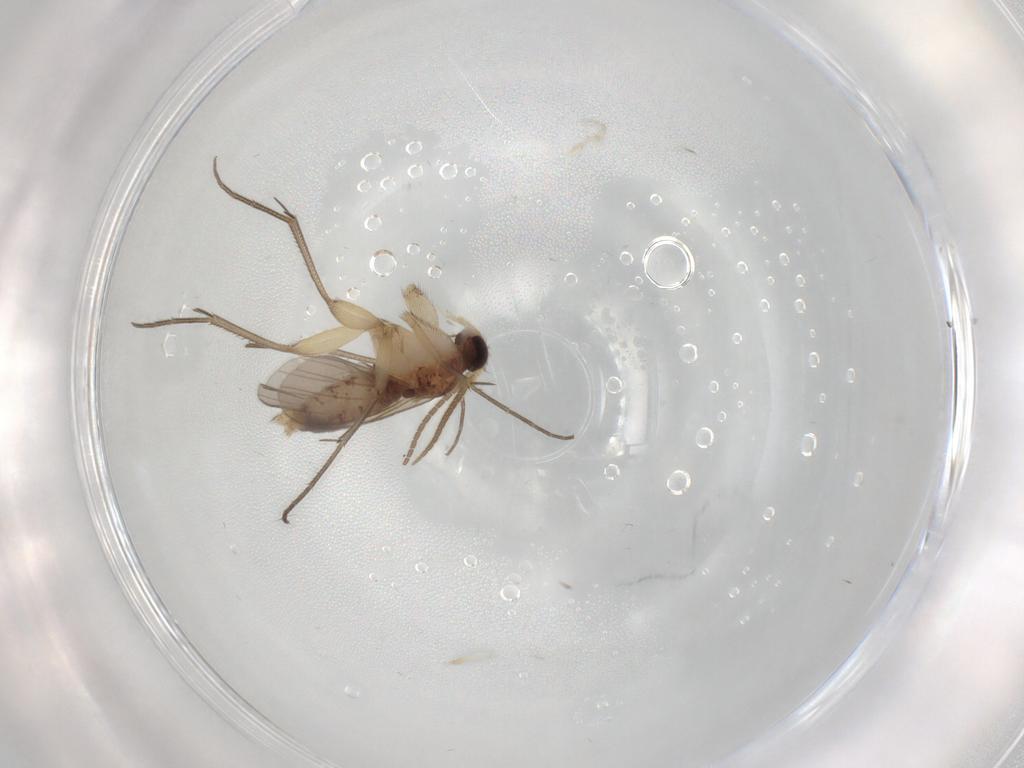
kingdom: Animalia
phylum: Arthropoda
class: Insecta
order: Diptera
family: Mycetophilidae
